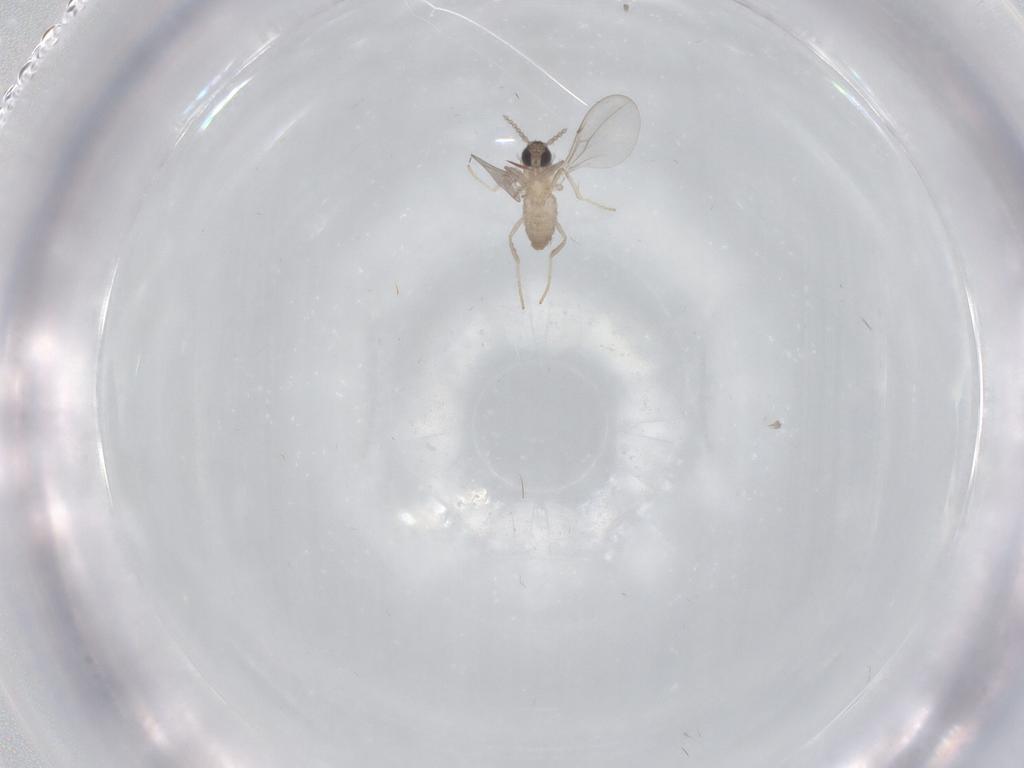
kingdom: Animalia
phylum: Arthropoda
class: Insecta
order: Diptera
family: Cecidomyiidae
